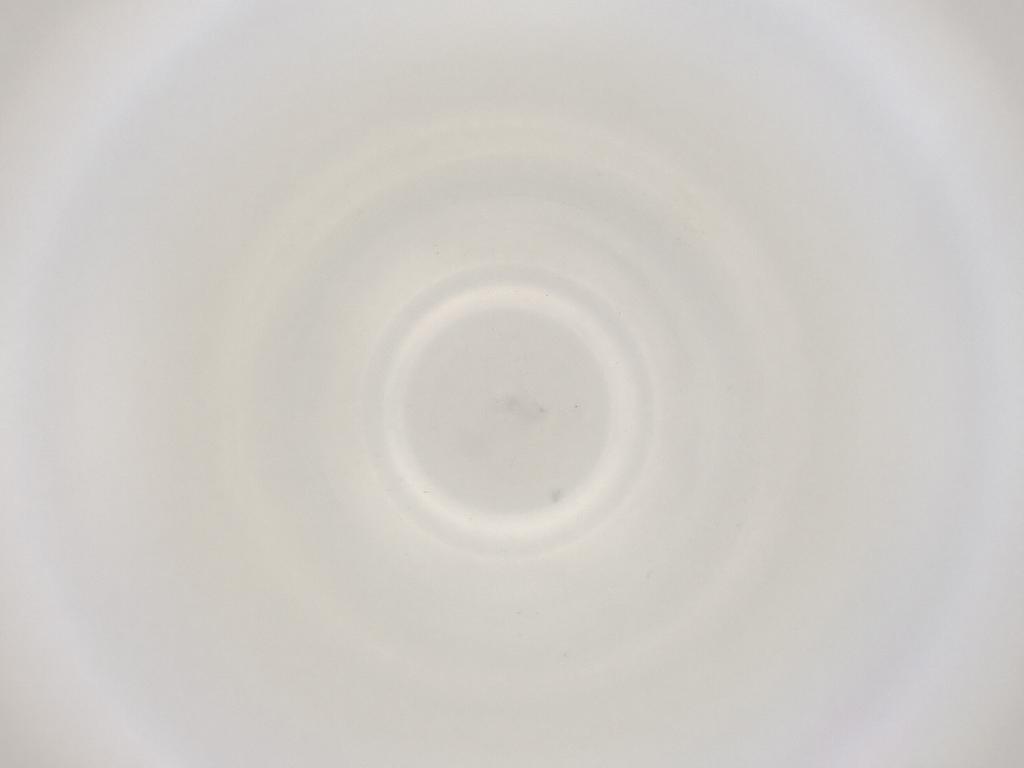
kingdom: Animalia
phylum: Arthropoda
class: Insecta
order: Diptera
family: Cecidomyiidae
